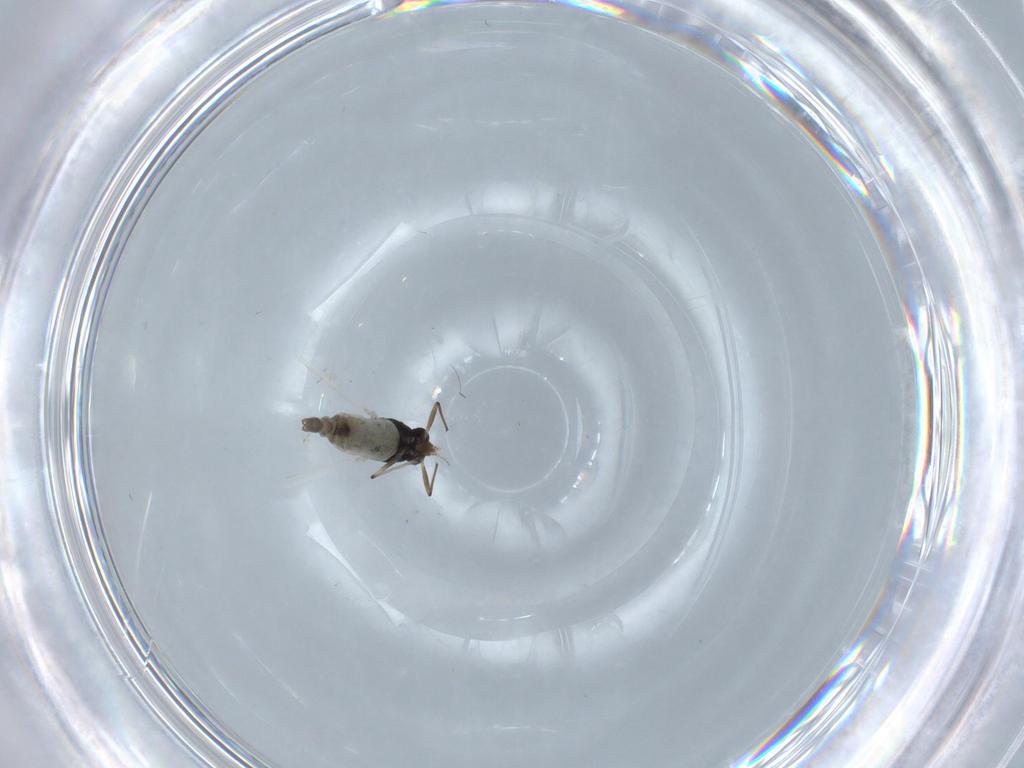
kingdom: Animalia
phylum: Arthropoda
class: Insecta
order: Diptera
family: Chironomidae
